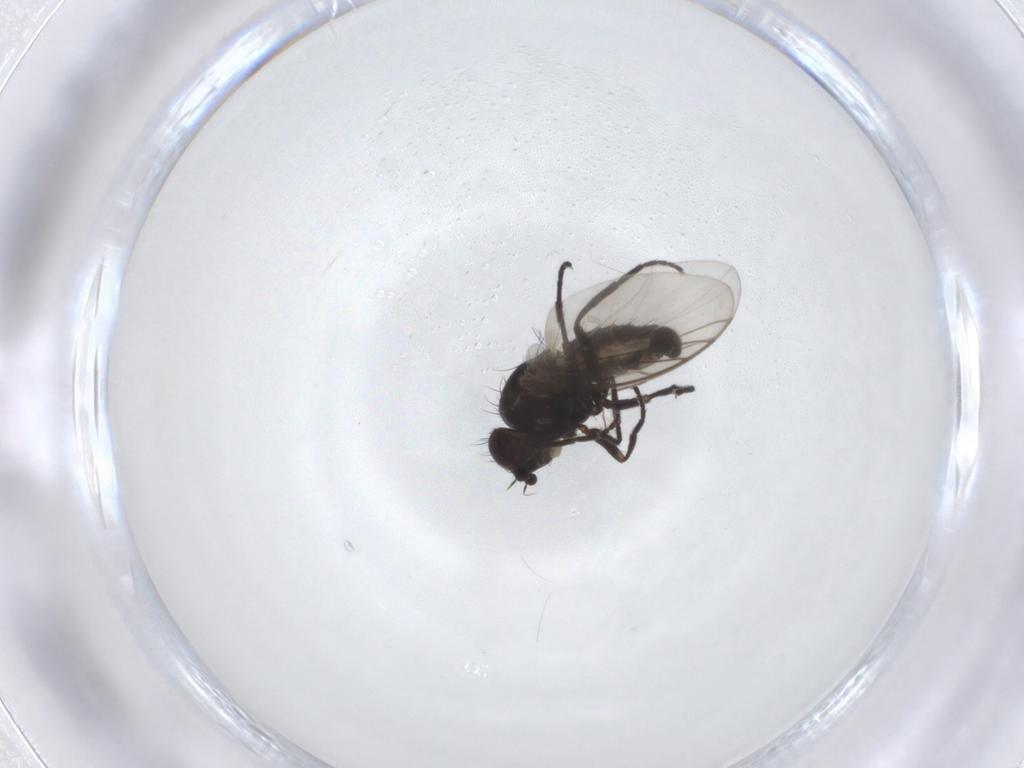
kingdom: Animalia
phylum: Arthropoda
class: Insecta
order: Diptera
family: Agromyzidae
